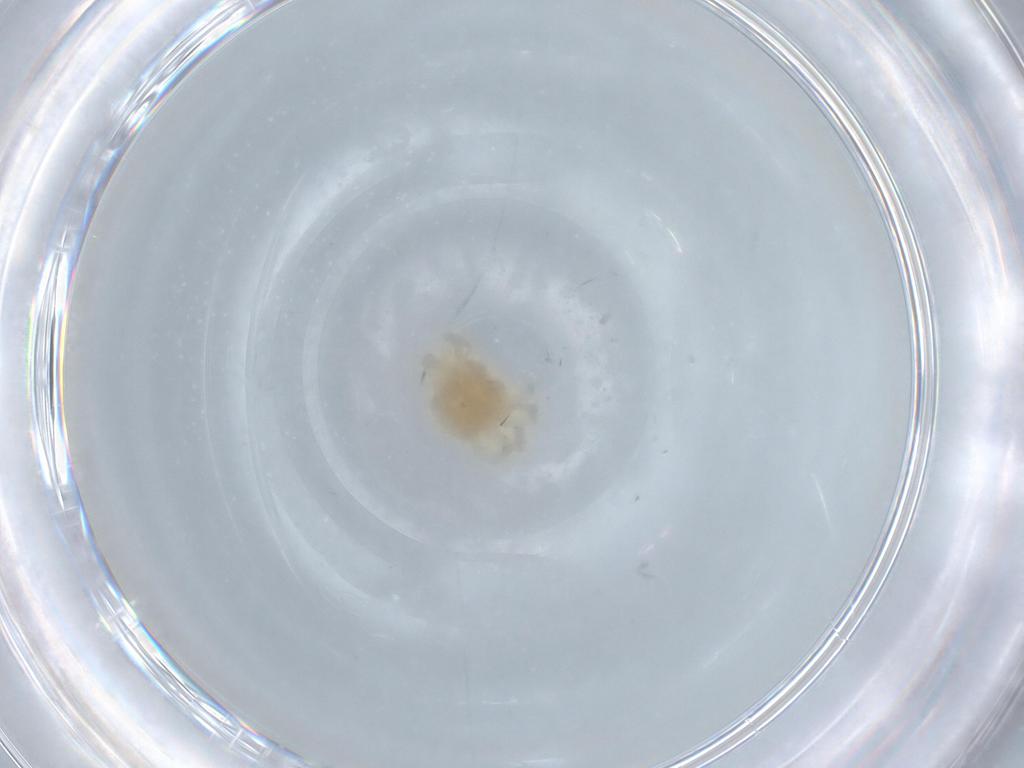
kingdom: Animalia
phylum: Arthropoda
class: Arachnida
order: Trombidiformes
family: Anystidae
